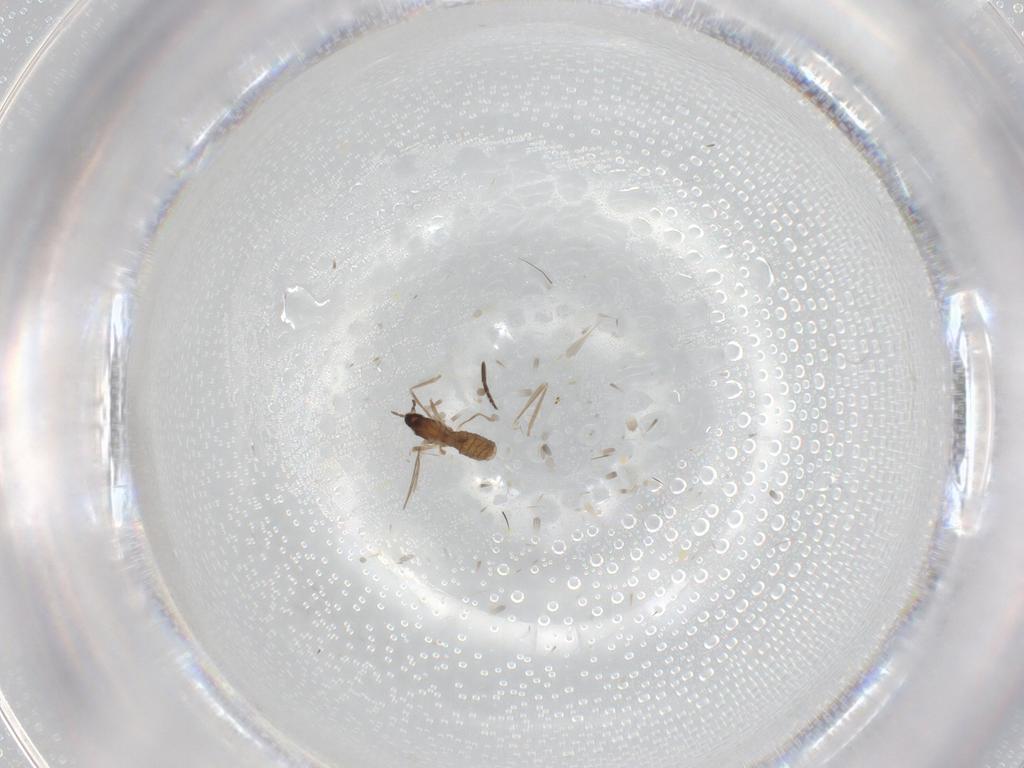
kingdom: Animalia
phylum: Arthropoda
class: Insecta
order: Diptera
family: Cecidomyiidae
